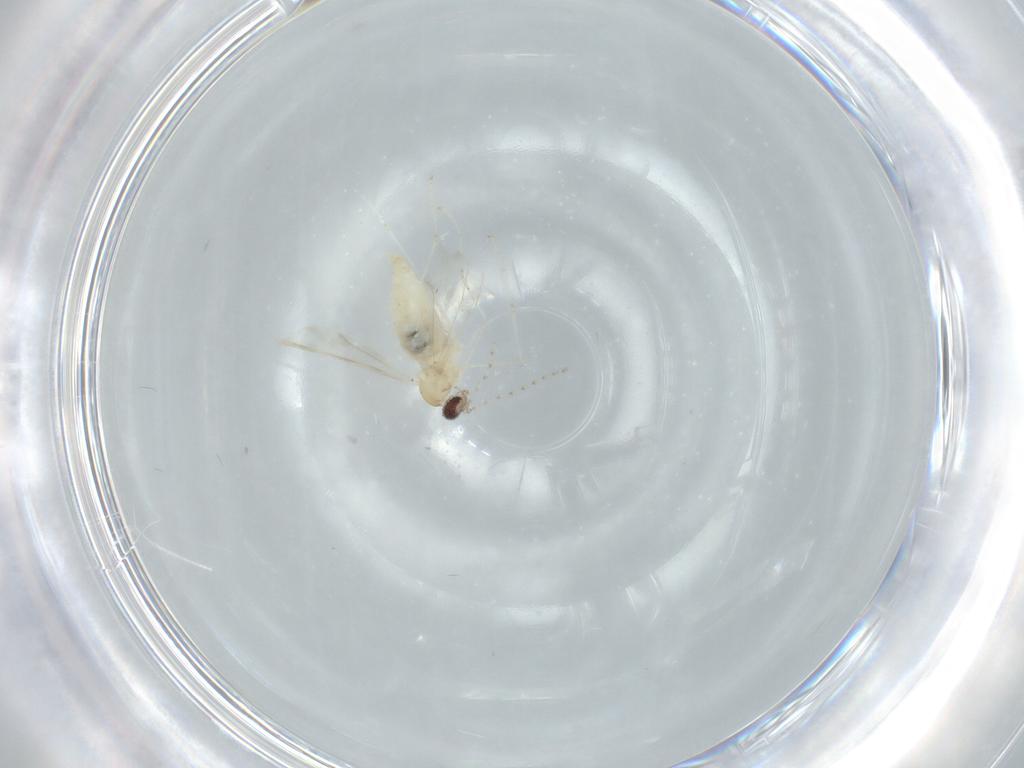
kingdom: Animalia
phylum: Arthropoda
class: Insecta
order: Diptera
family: Cecidomyiidae
